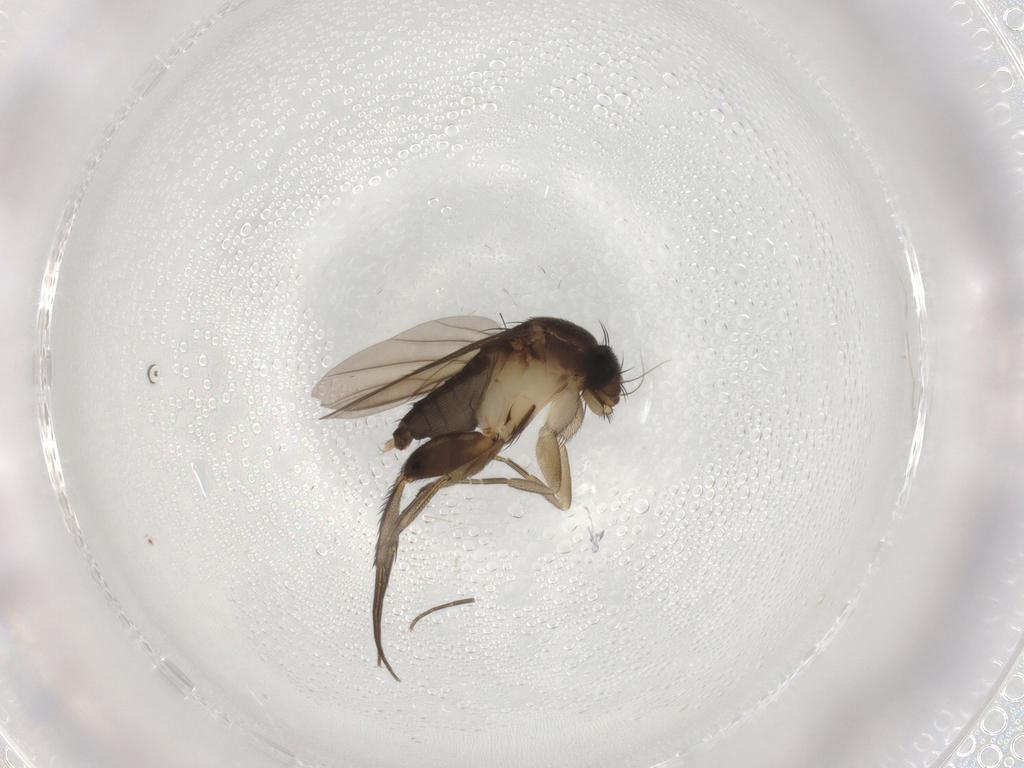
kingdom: Animalia
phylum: Arthropoda
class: Insecta
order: Diptera
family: Phoridae
